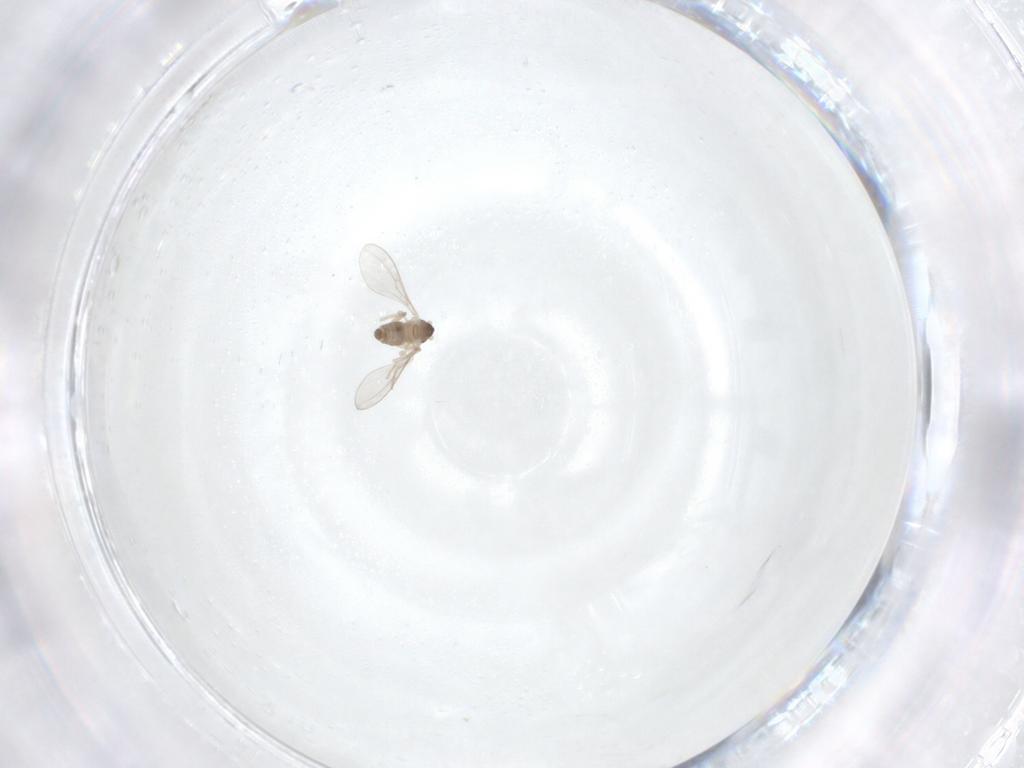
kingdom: Animalia
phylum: Arthropoda
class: Insecta
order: Diptera
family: Cecidomyiidae
